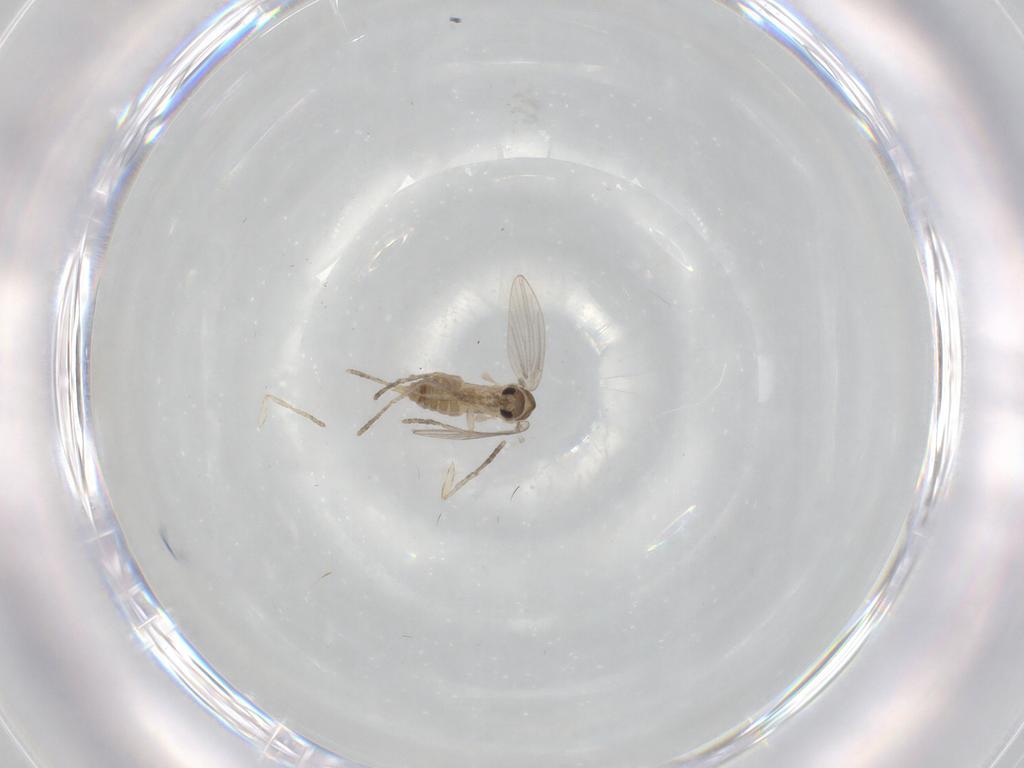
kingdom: Animalia
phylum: Arthropoda
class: Insecta
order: Diptera
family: Psychodidae
